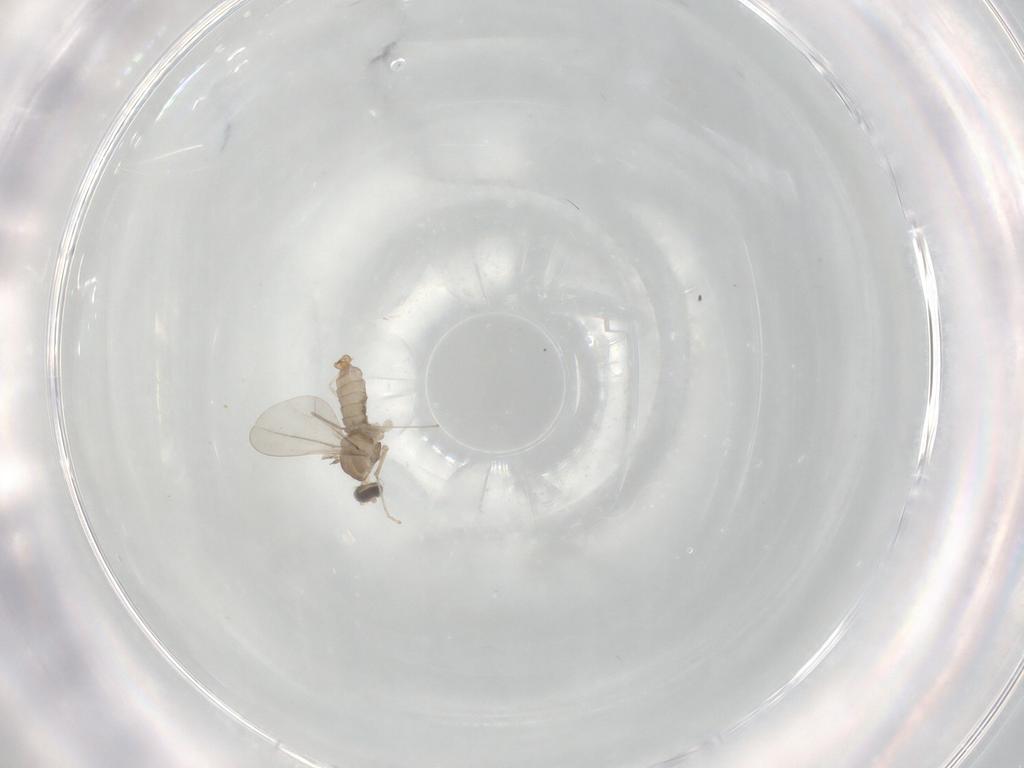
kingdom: Animalia
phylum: Arthropoda
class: Insecta
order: Diptera
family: Cecidomyiidae
